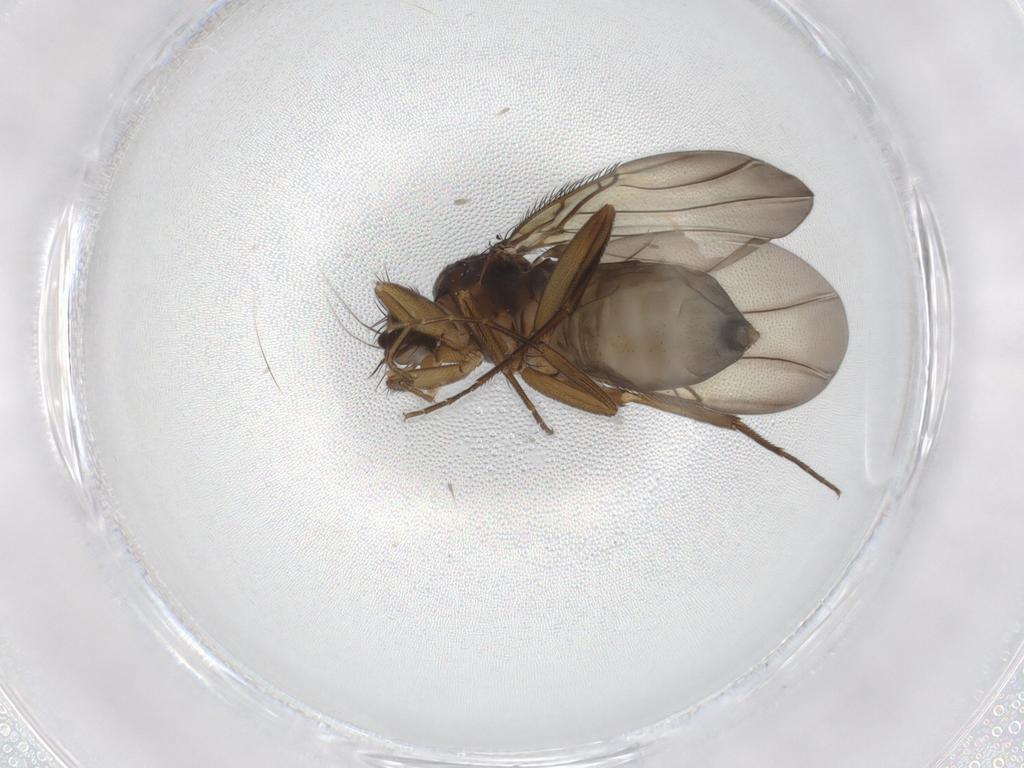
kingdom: Animalia
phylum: Arthropoda
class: Insecta
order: Diptera
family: Phoridae
